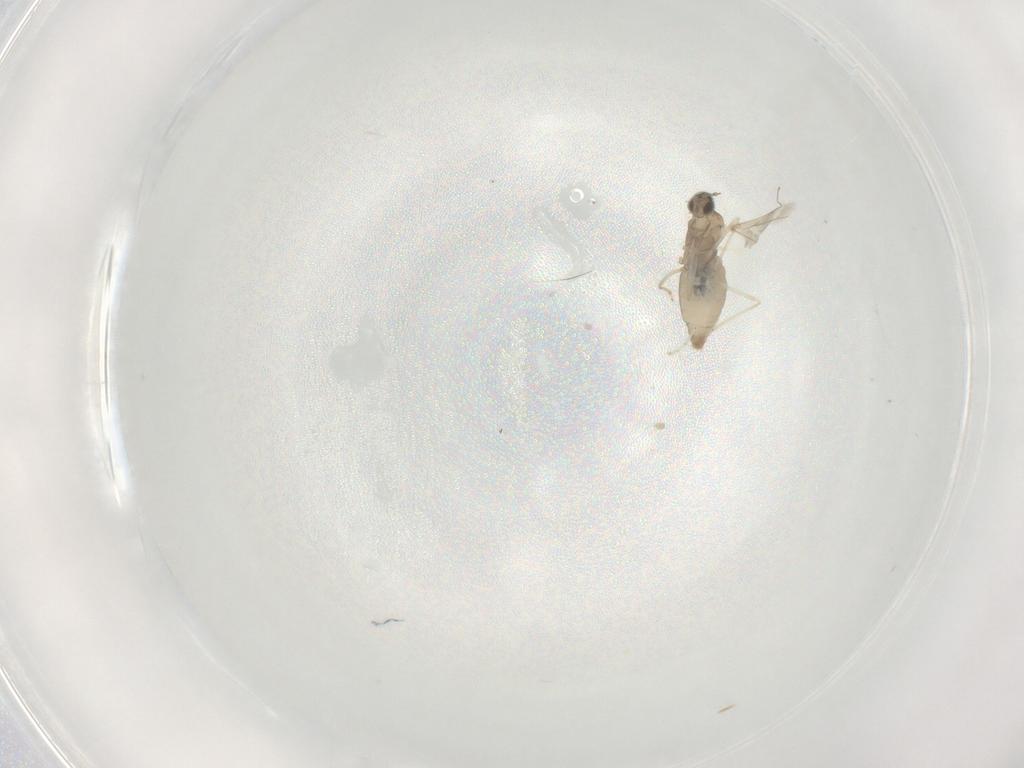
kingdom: Animalia
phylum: Arthropoda
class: Insecta
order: Diptera
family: Cecidomyiidae
